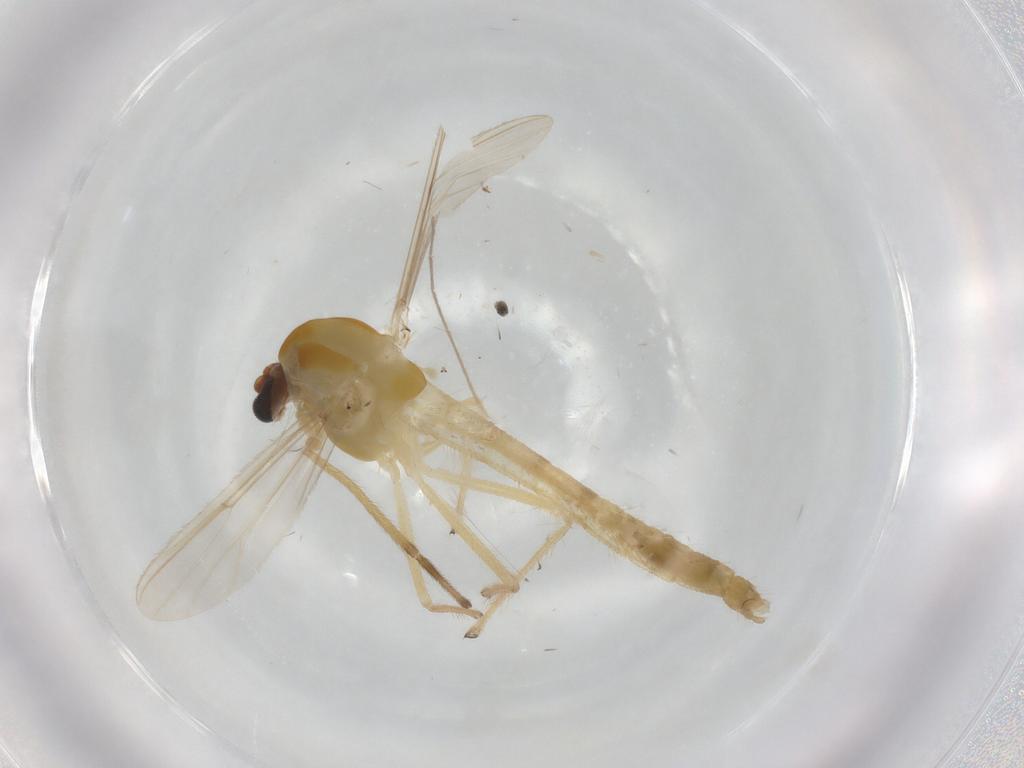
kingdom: Animalia
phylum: Arthropoda
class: Insecta
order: Diptera
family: Chironomidae
